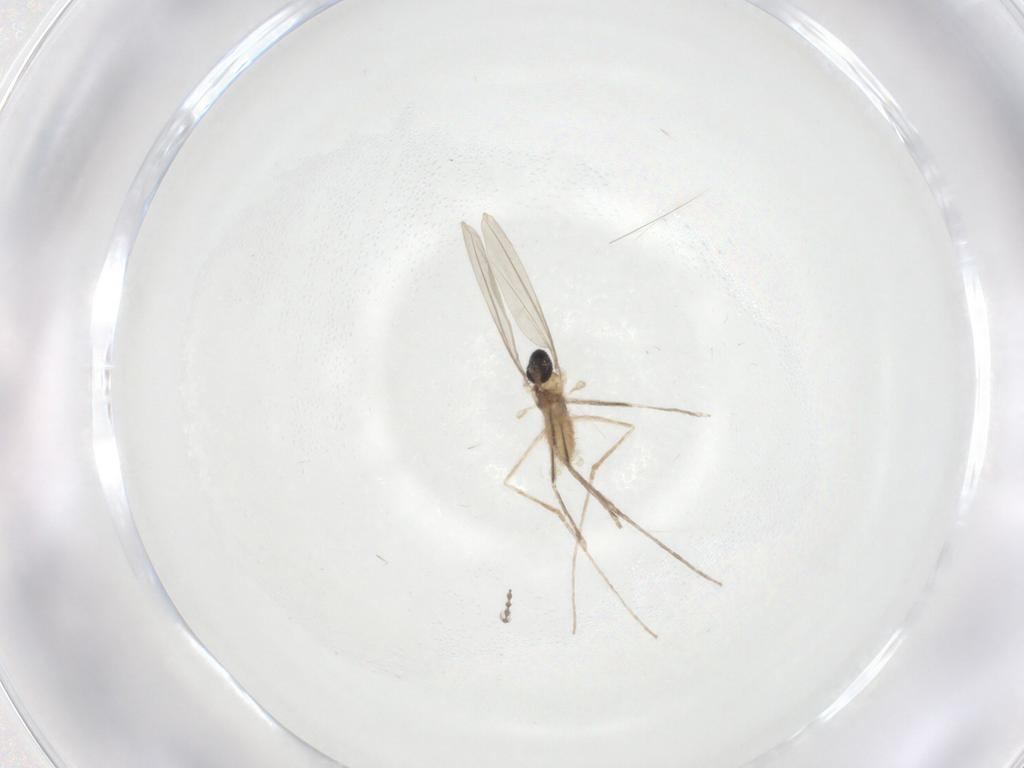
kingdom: Animalia
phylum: Arthropoda
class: Insecta
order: Diptera
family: Cecidomyiidae
